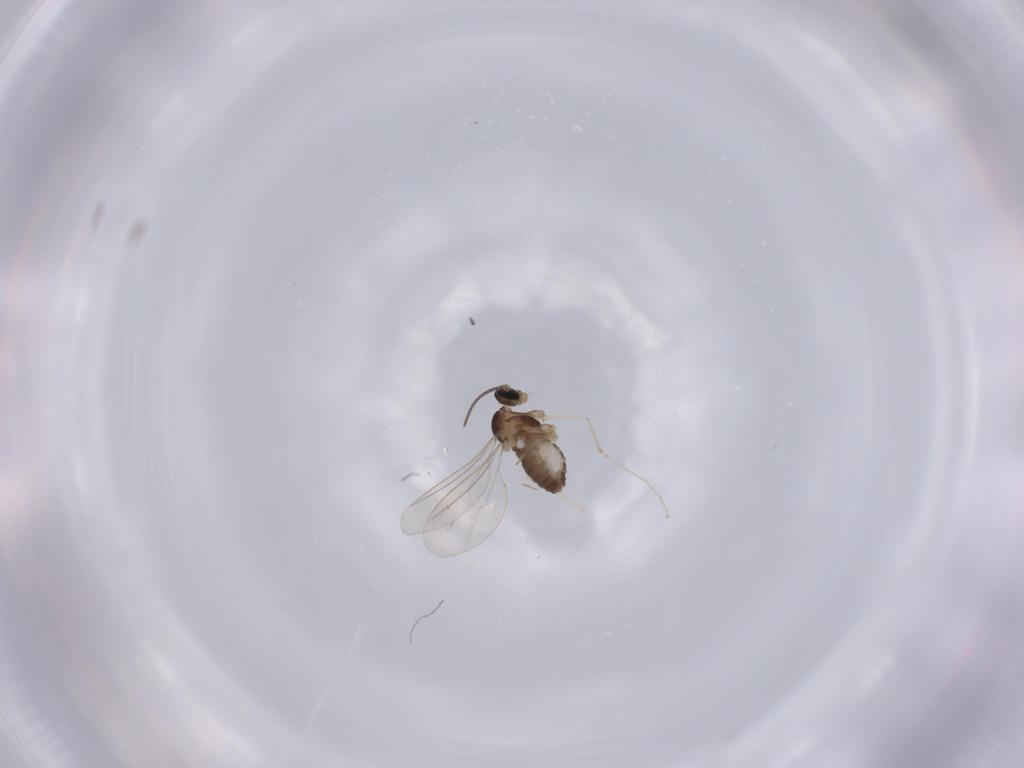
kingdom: Animalia
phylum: Arthropoda
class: Insecta
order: Diptera
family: Cecidomyiidae
